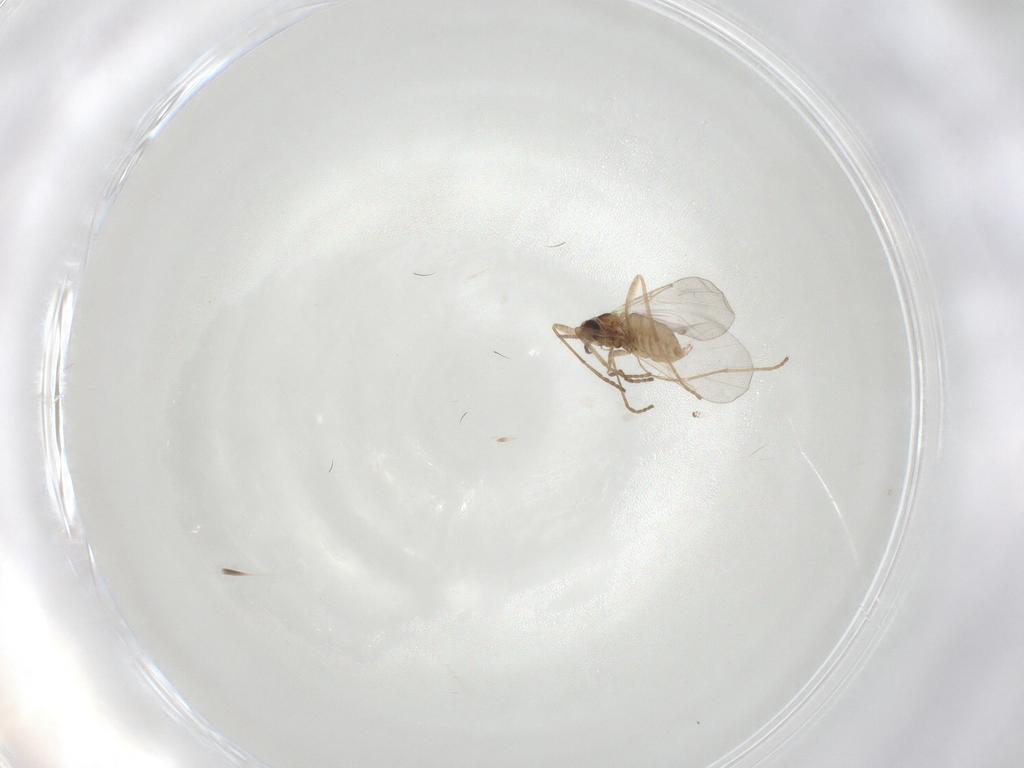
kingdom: Animalia
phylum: Arthropoda
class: Insecta
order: Diptera
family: Cecidomyiidae
